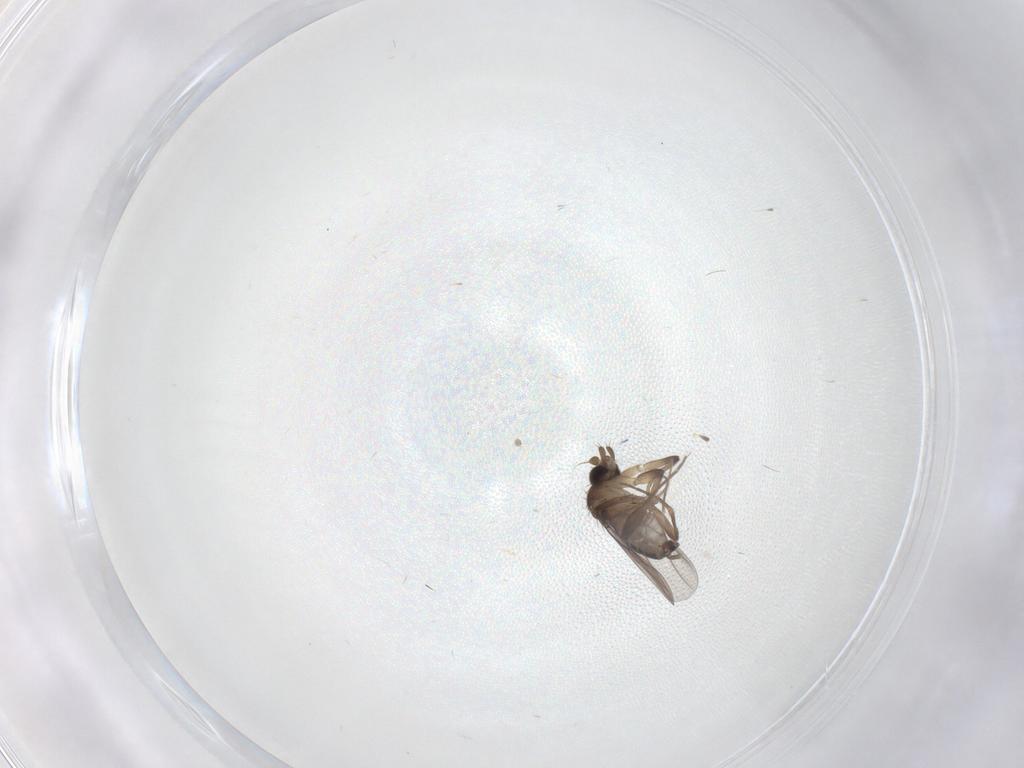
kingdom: Animalia
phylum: Arthropoda
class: Insecta
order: Diptera
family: Phoridae
